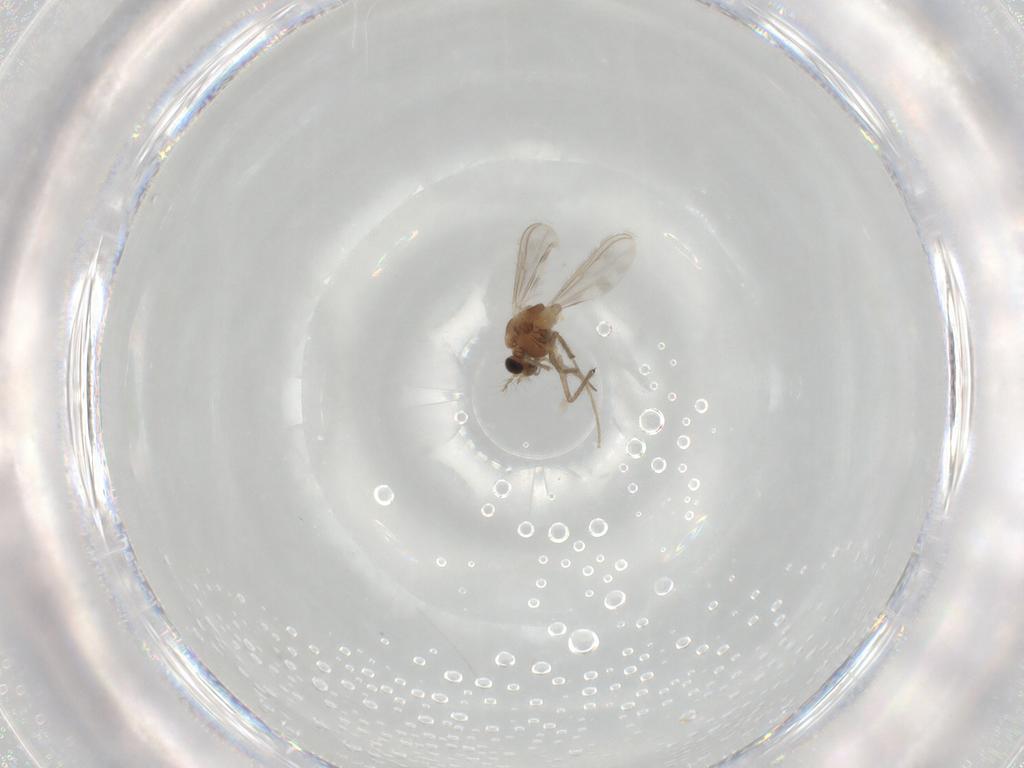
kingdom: Animalia
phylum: Arthropoda
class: Insecta
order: Diptera
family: Chironomidae
